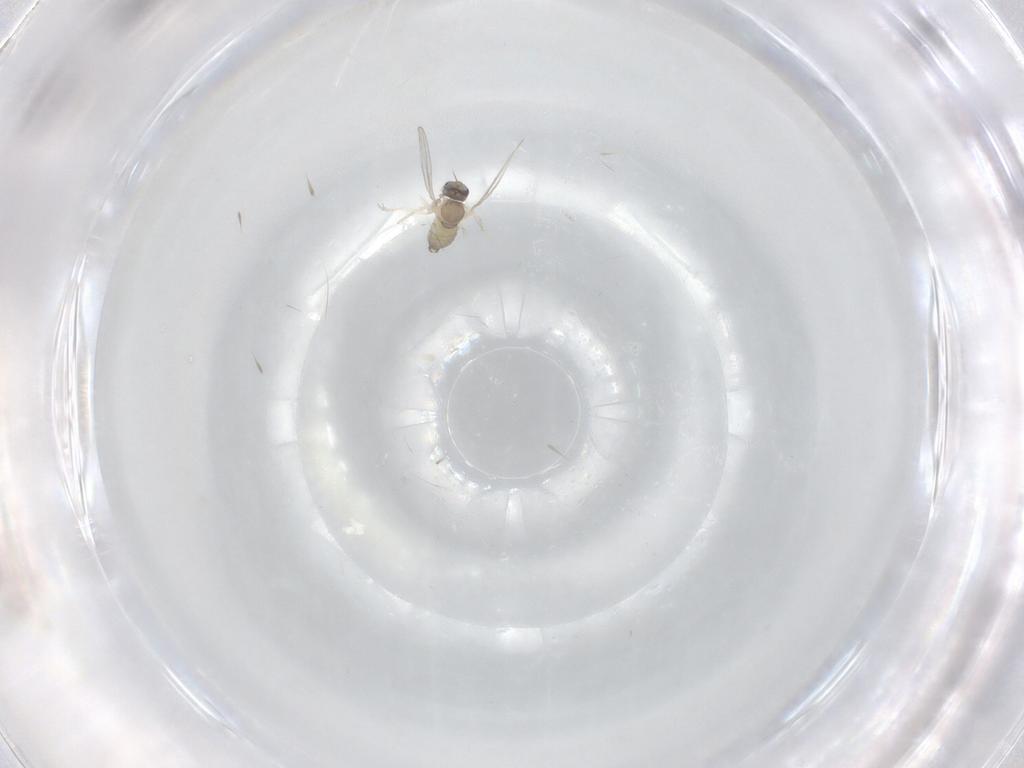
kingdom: Animalia
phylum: Arthropoda
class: Insecta
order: Diptera
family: Cecidomyiidae
